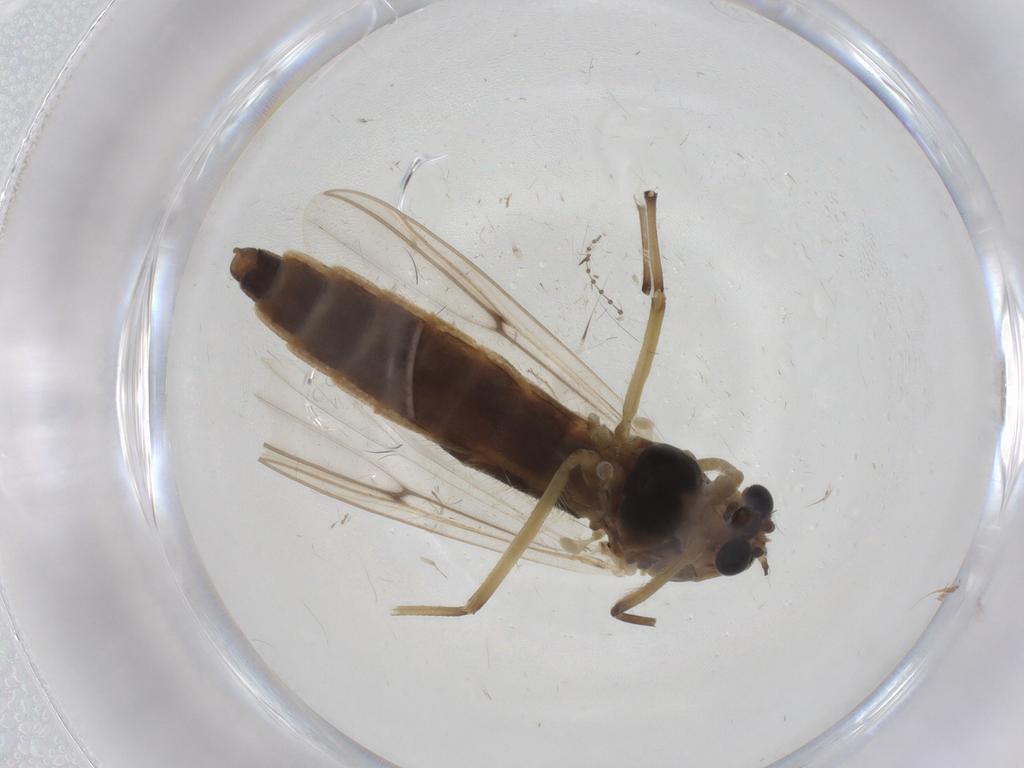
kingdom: Animalia
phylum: Arthropoda
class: Insecta
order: Diptera
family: Chironomidae
